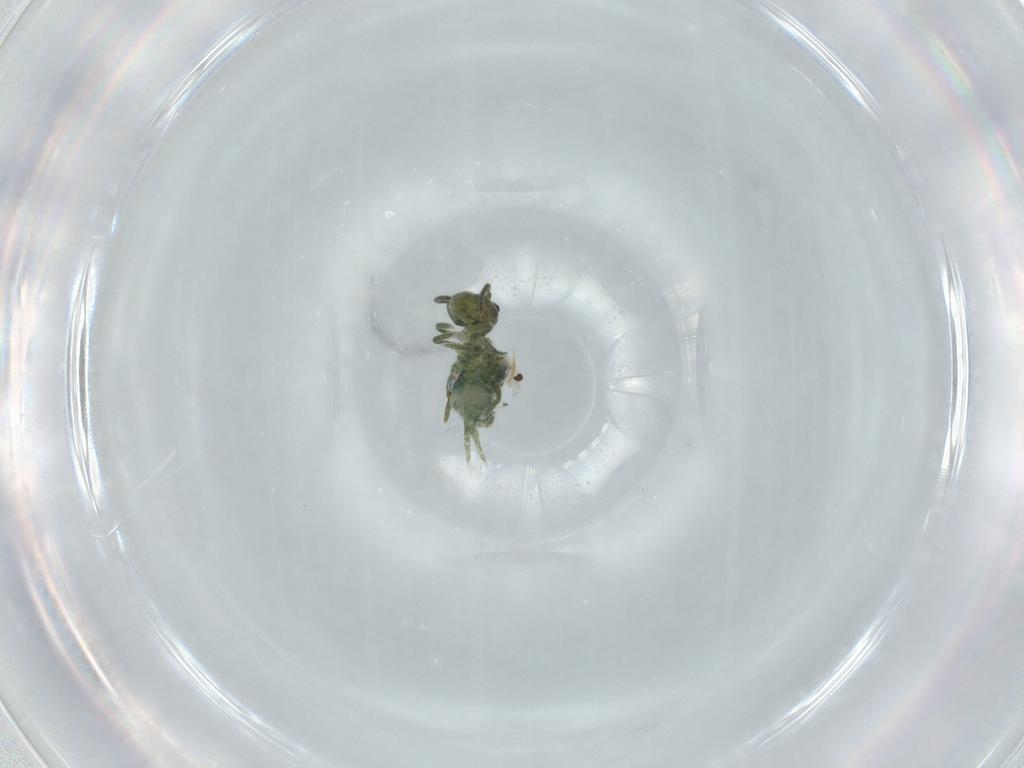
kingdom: Animalia
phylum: Arthropoda
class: Collembola
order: Symphypleona
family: Sminthuridae
